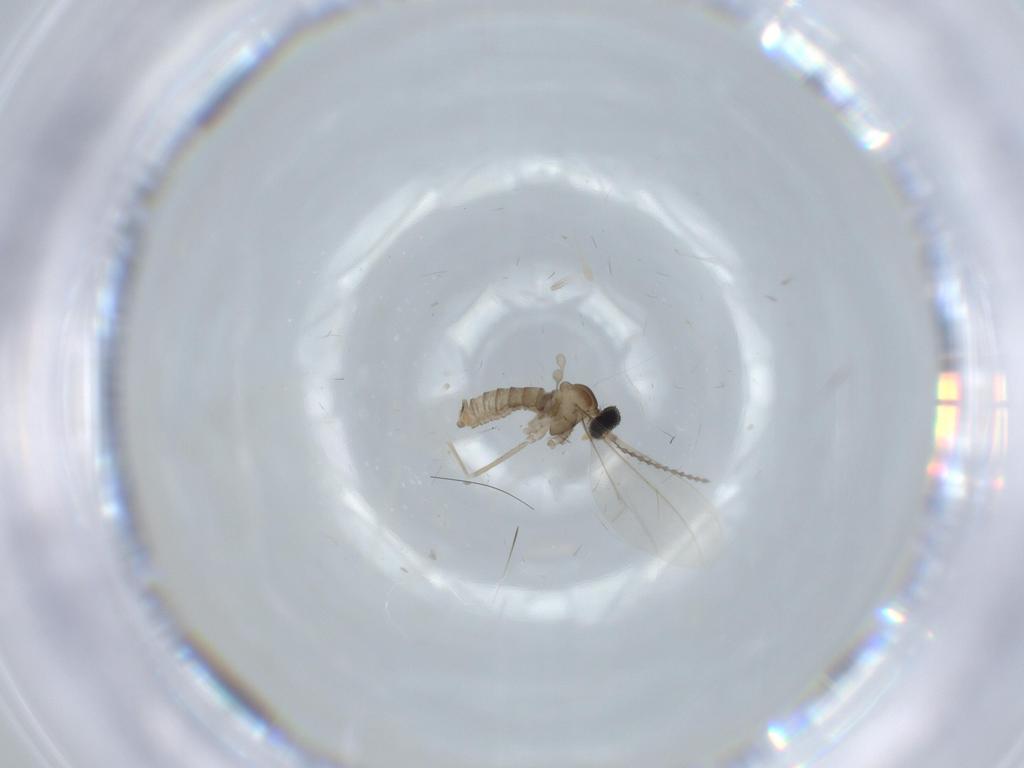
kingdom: Animalia
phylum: Arthropoda
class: Insecta
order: Diptera
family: Cecidomyiidae
